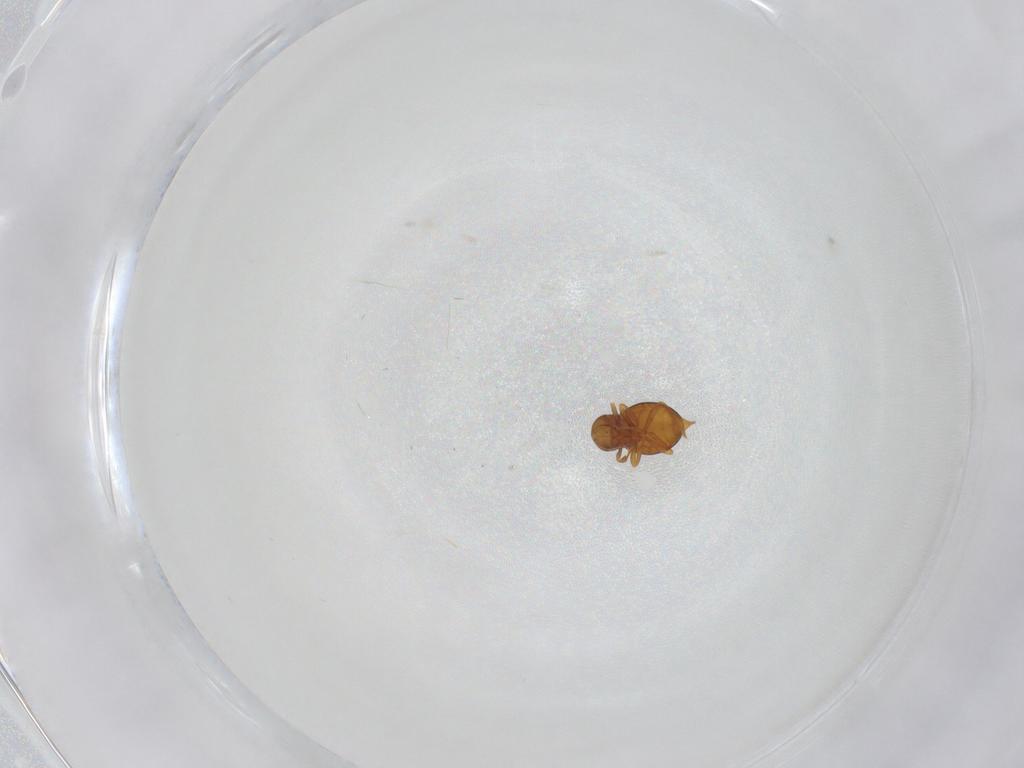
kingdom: Animalia
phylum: Arthropoda
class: Insecta
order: Hymenoptera
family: Scelionidae
